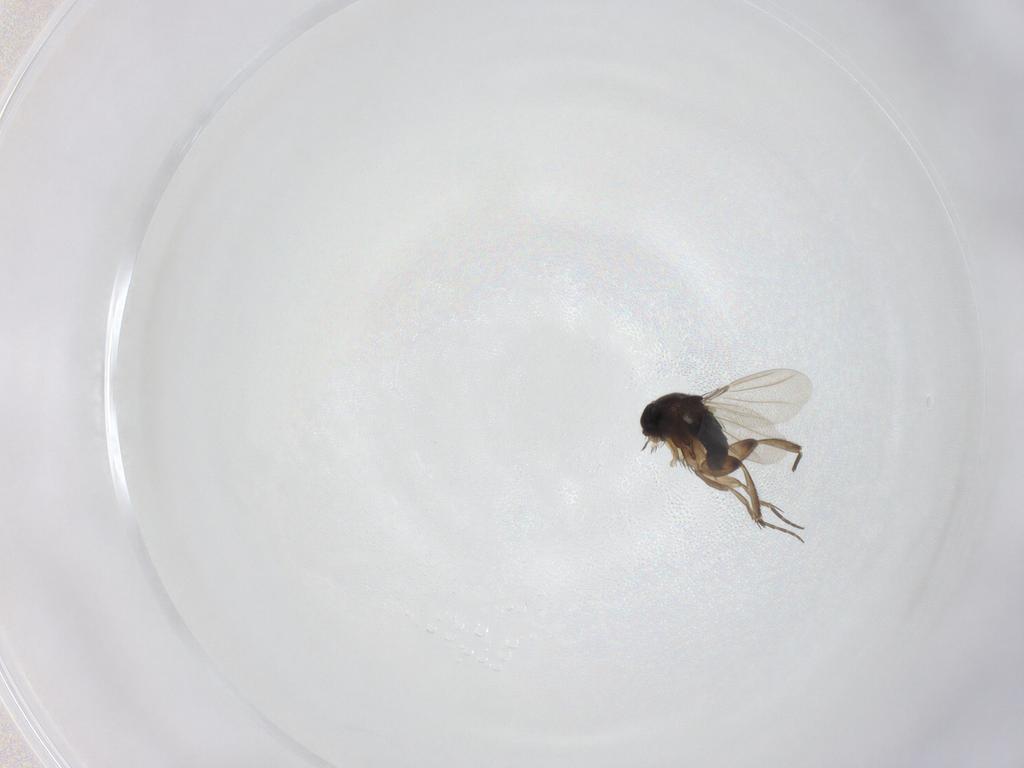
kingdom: Animalia
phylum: Arthropoda
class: Insecta
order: Diptera
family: Phoridae
